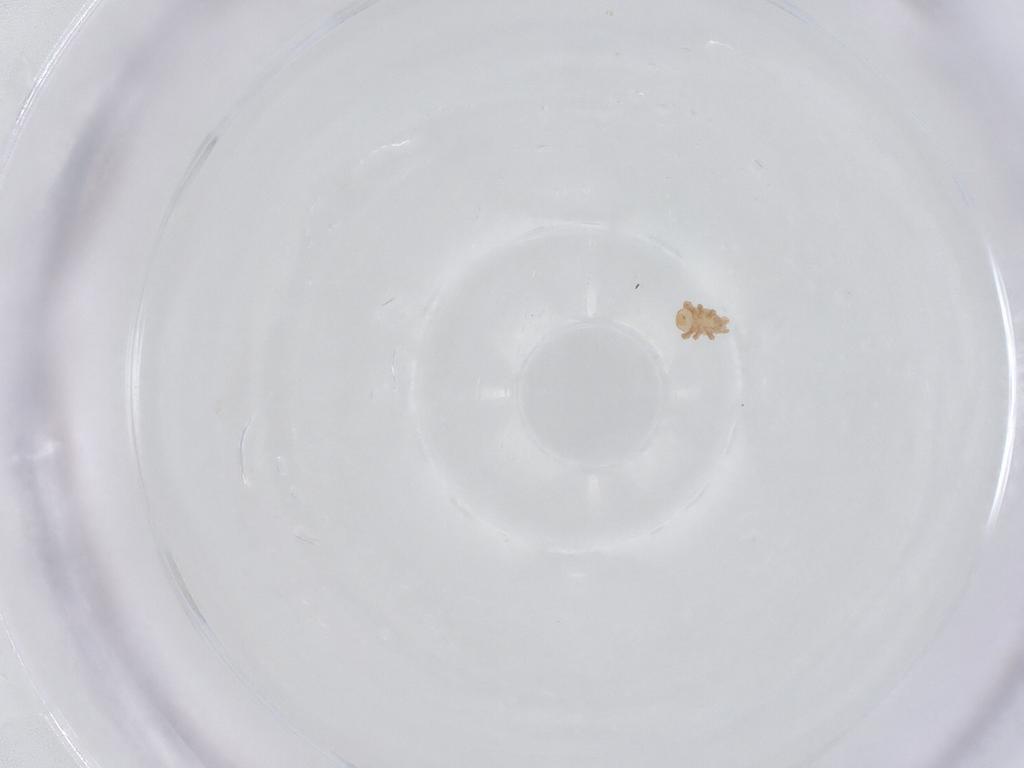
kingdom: Animalia
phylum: Arthropoda
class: Arachnida
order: Mesostigmata
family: Halolaelapidae
